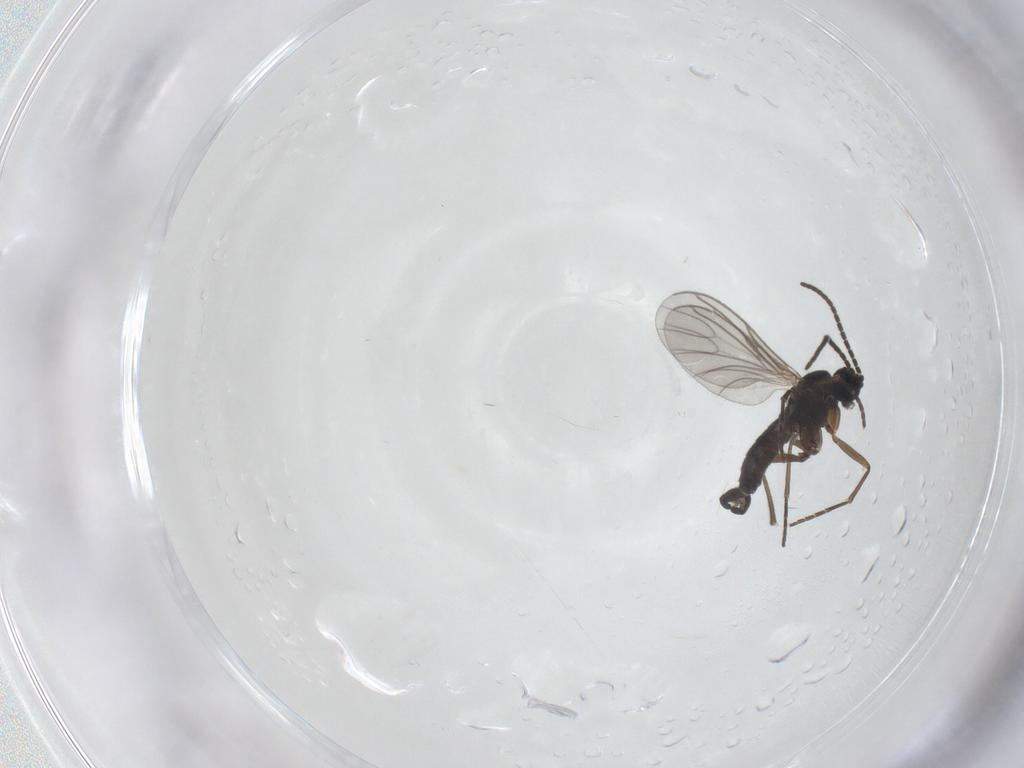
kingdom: Animalia
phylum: Arthropoda
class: Insecta
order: Diptera
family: Sciaridae
